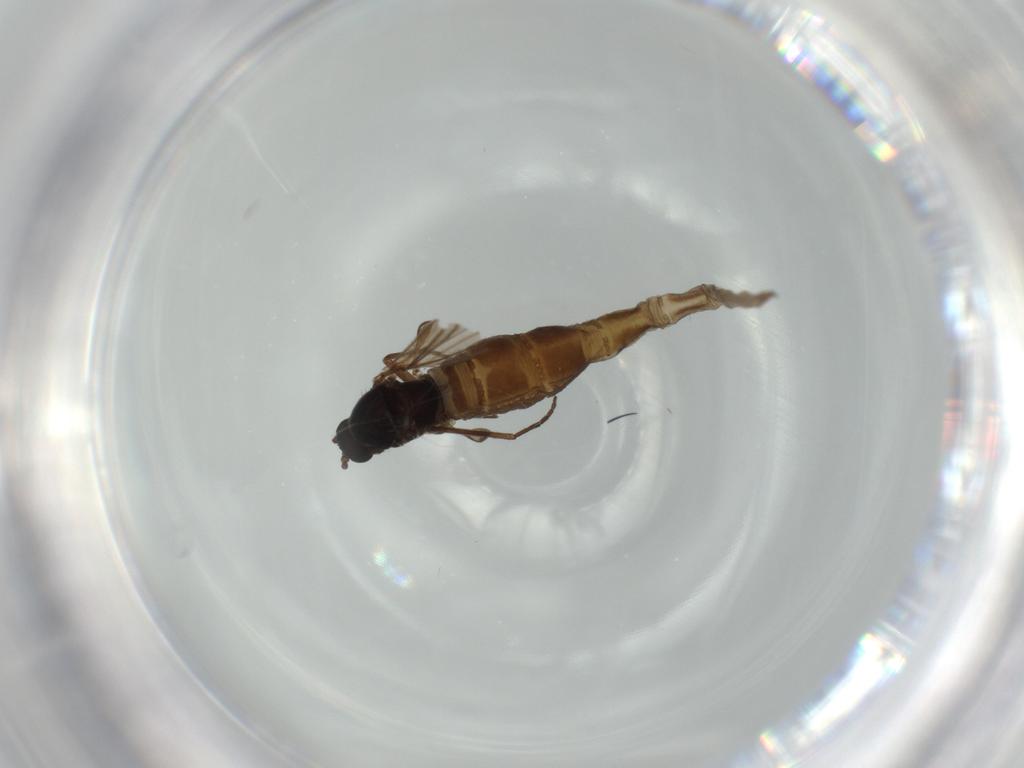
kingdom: Animalia
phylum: Arthropoda
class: Insecta
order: Diptera
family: Sciaridae
